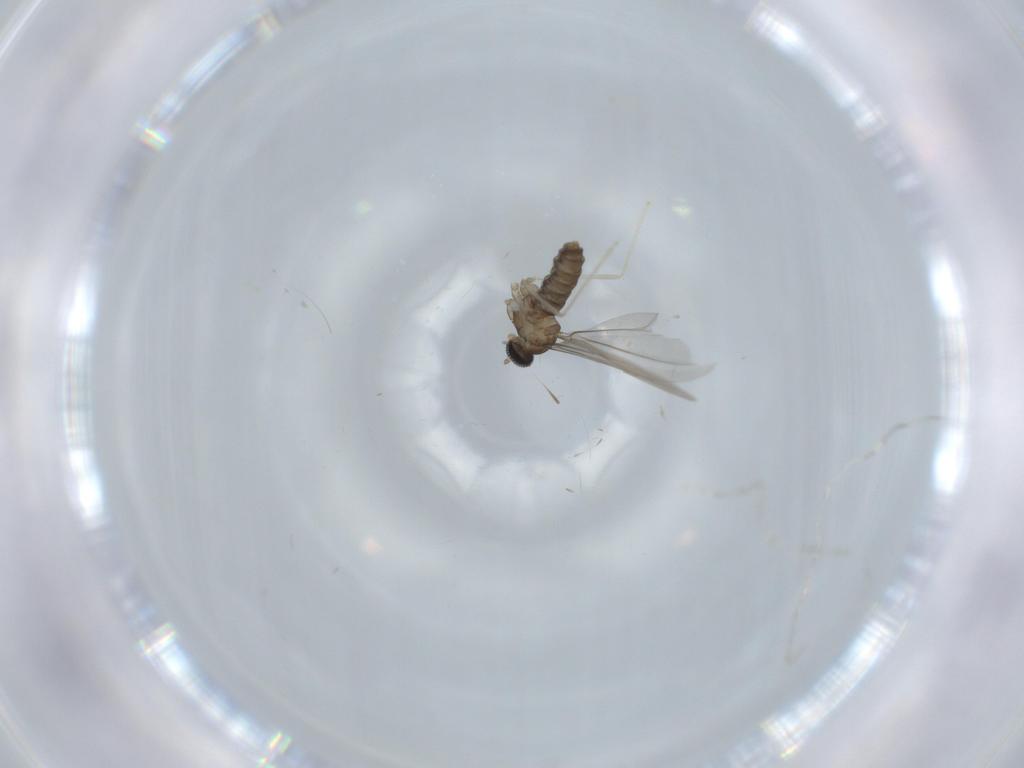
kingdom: Animalia
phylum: Arthropoda
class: Insecta
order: Diptera
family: Cecidomyiidae
